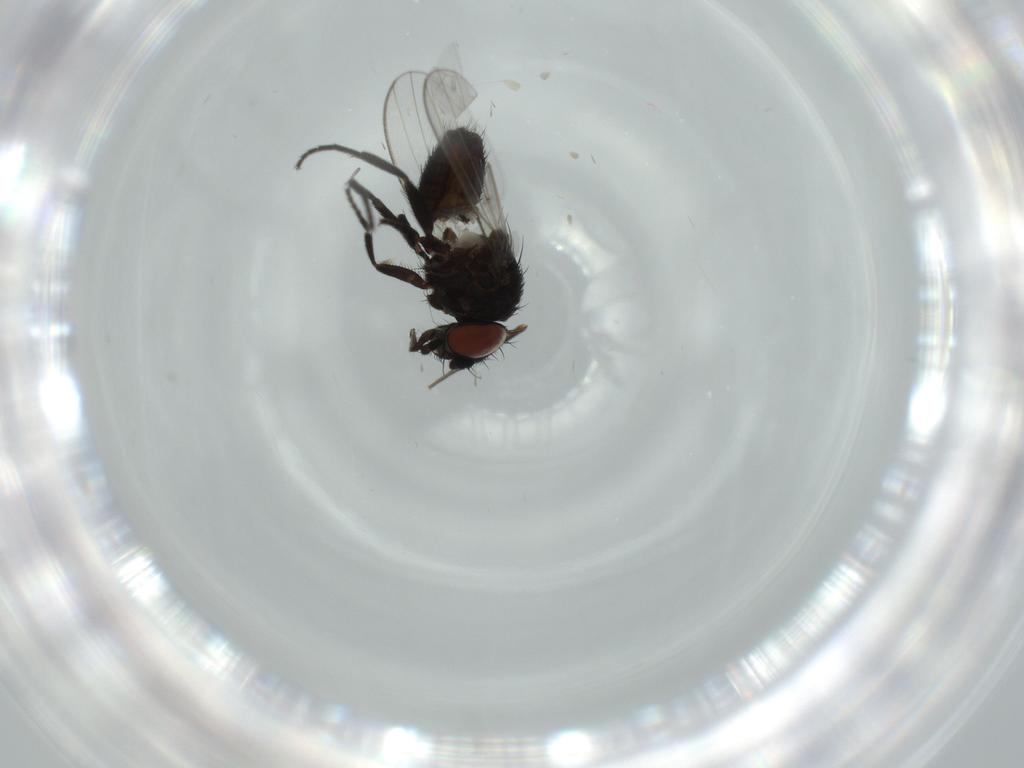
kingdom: Animalia
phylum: Arthropoda
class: Insecta
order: Diptera
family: Milichiidae
